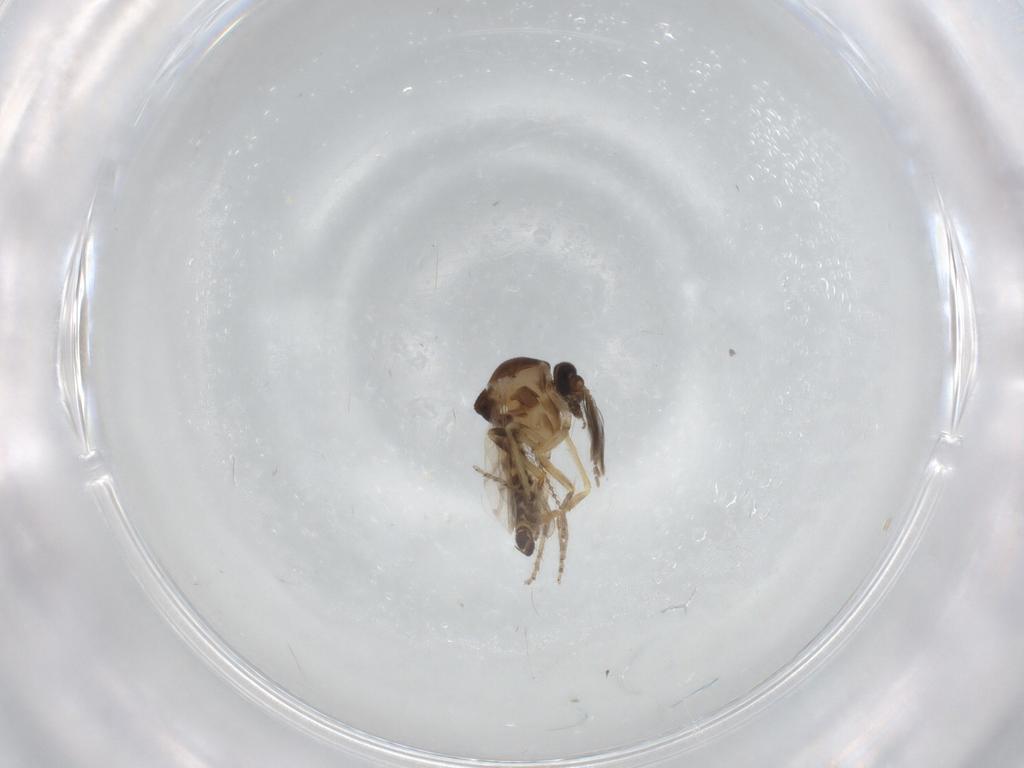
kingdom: Animalia
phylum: Arthropoda
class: Insecta
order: Diptera
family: Ceratopogonidae
